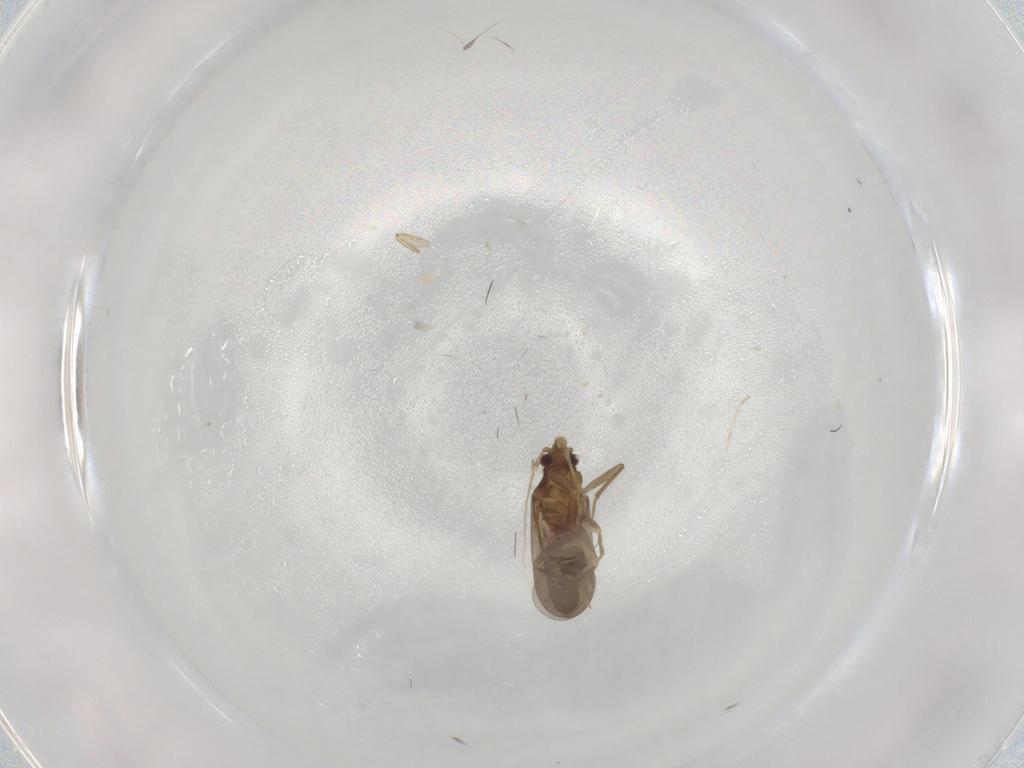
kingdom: Animalia
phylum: Arthropoda
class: Insecta
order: Hemiptera
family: Ceratocombidae
